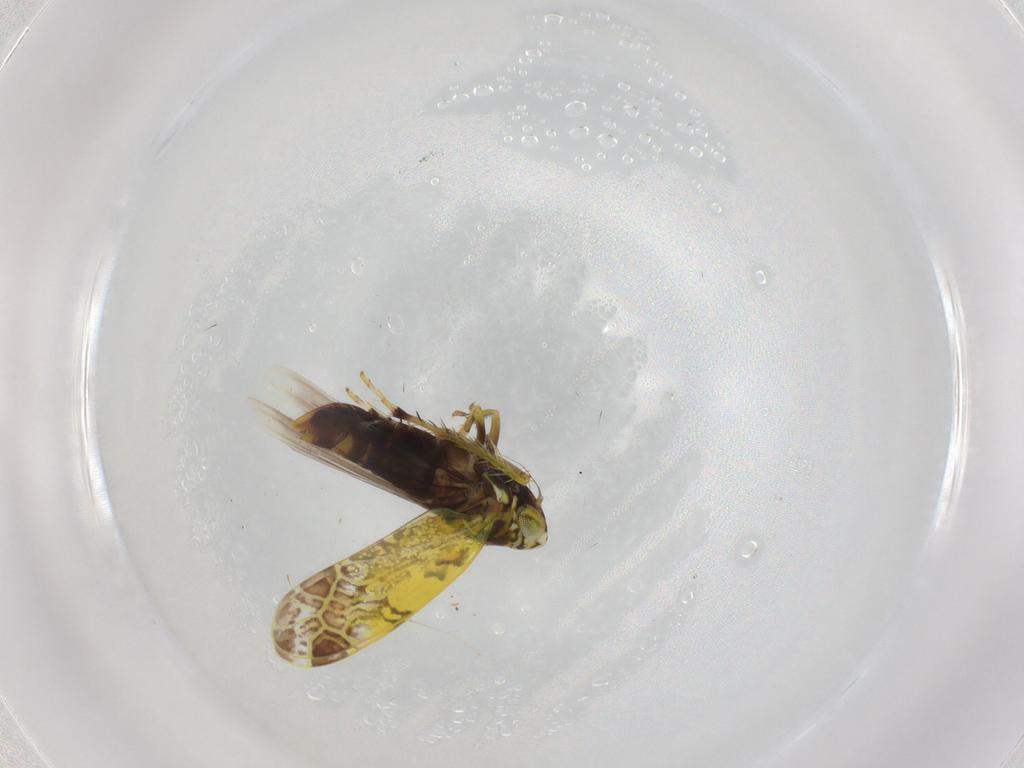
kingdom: Animalia
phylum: Arthropoda
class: Insecta
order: Hemiptera
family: Cicadellidae
